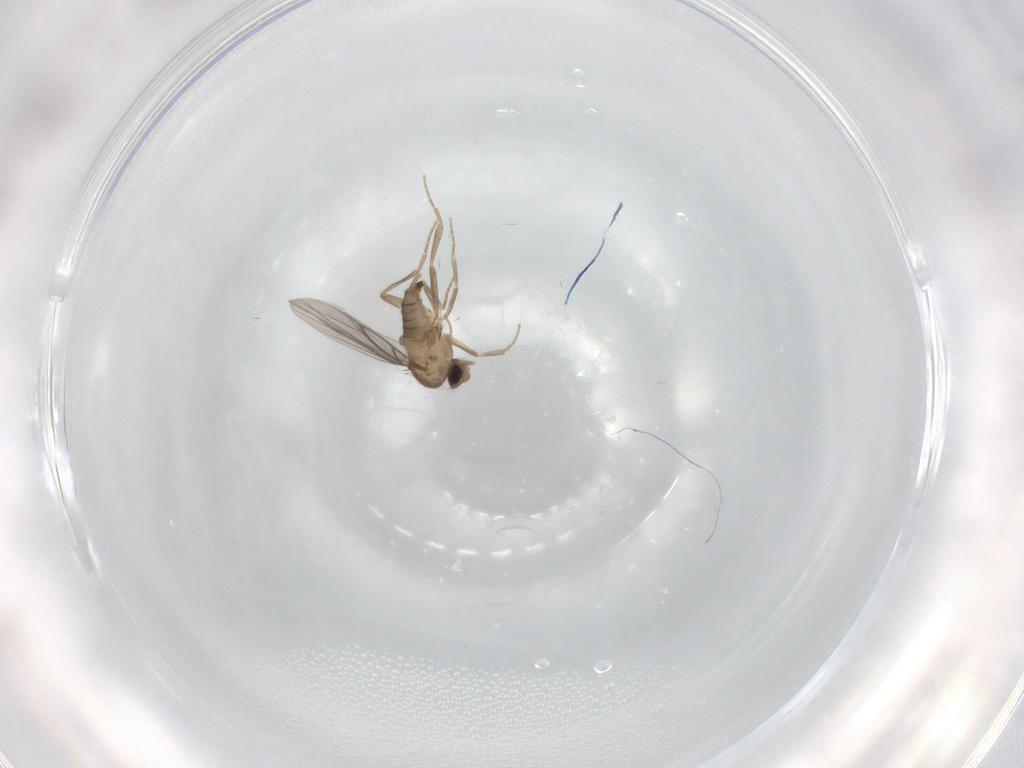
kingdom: Animalia
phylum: Arthropoda
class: Insecta
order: Diptera
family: Cecidomyiidae
